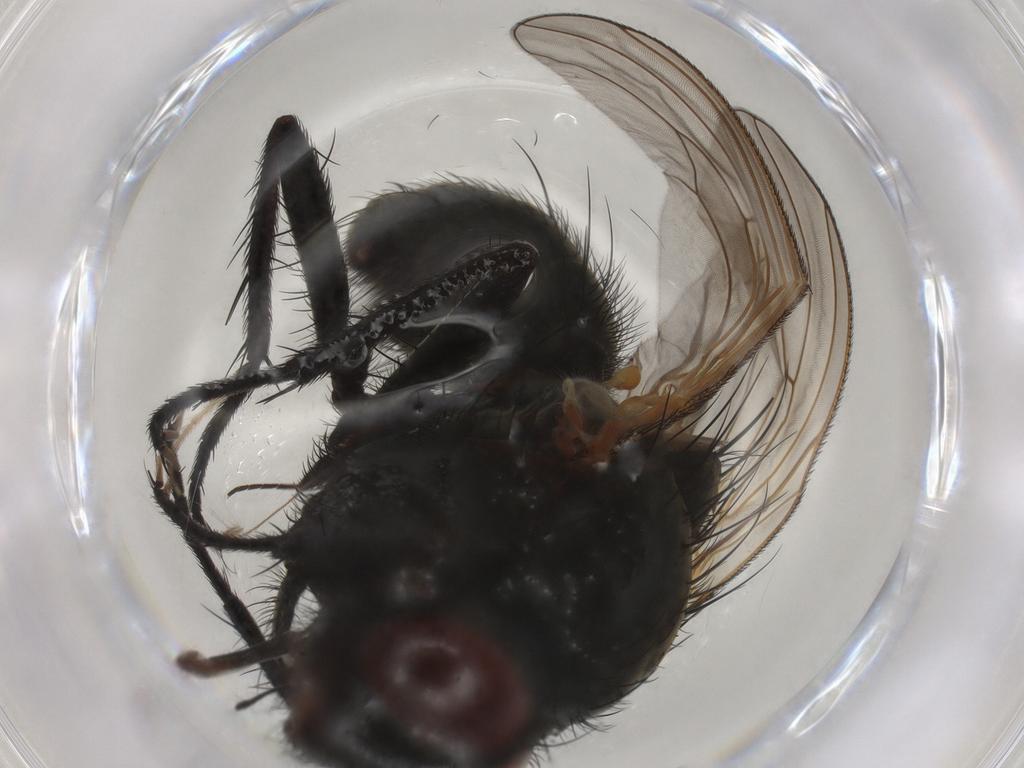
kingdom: Animalia
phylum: Arthropoda
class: Insecta
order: Diptera
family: Anthomyiidae
